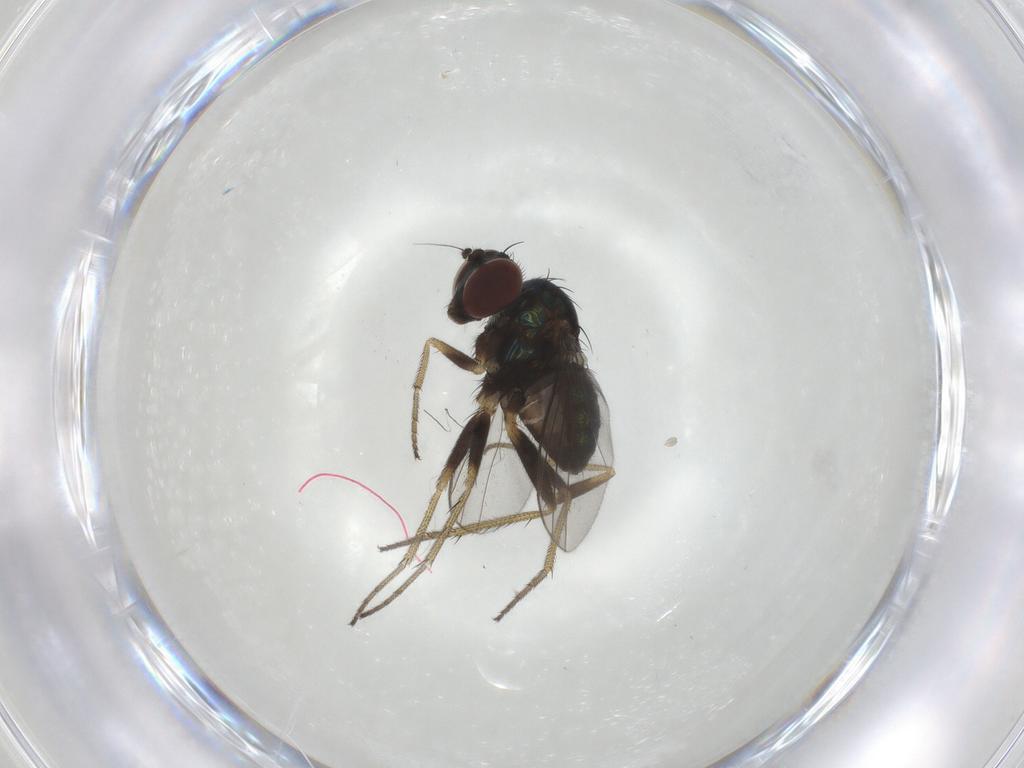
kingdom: Animalia
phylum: Arthropoda
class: Insecta
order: Diptera
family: Dolichopodidae
